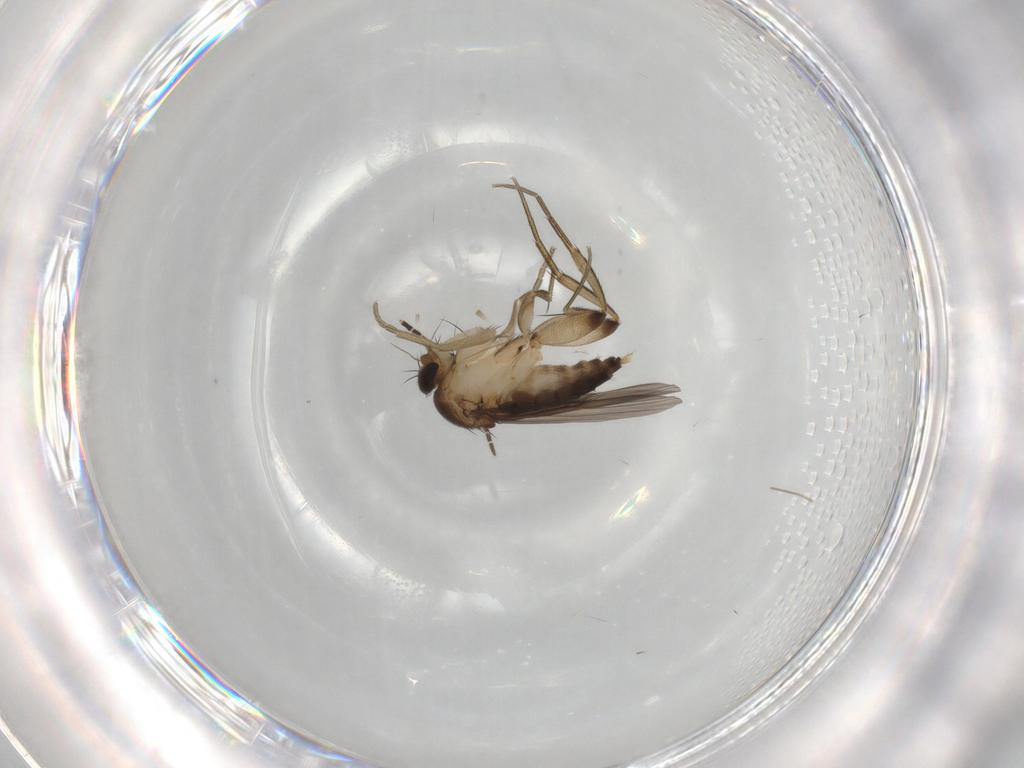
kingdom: Animalia
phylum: Arthropoda
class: Insecta
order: Diptera
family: Phoridae
